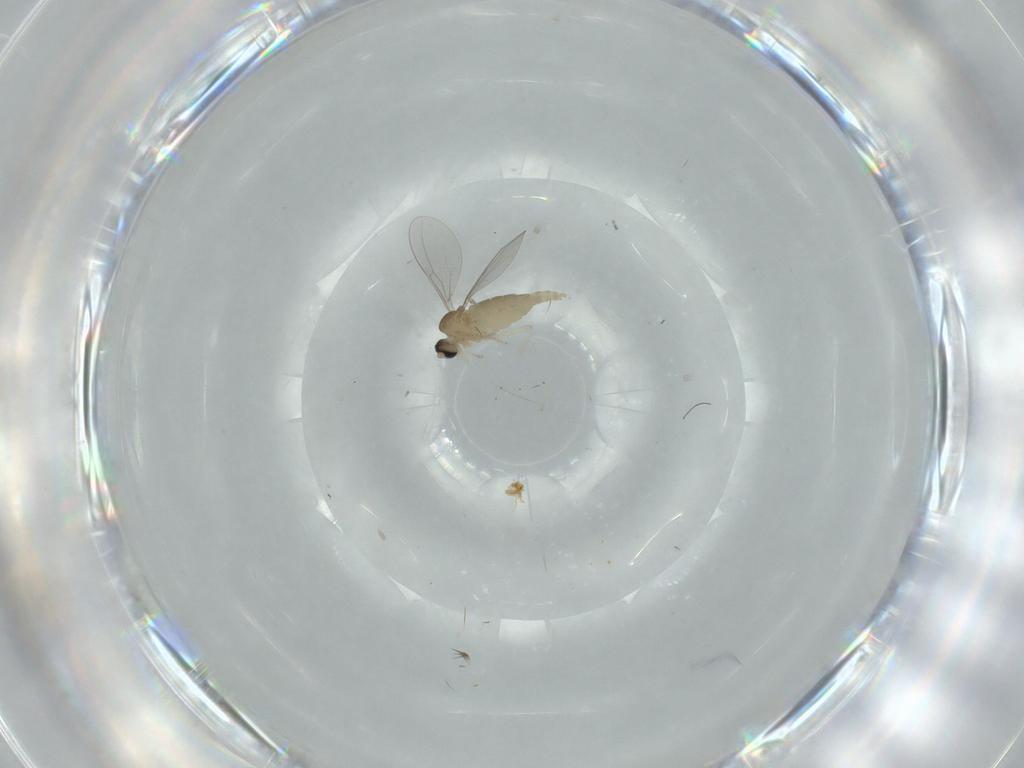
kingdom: Animalia
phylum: Arthropoda
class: Insecta
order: Diptera
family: Cecidomyiidae
